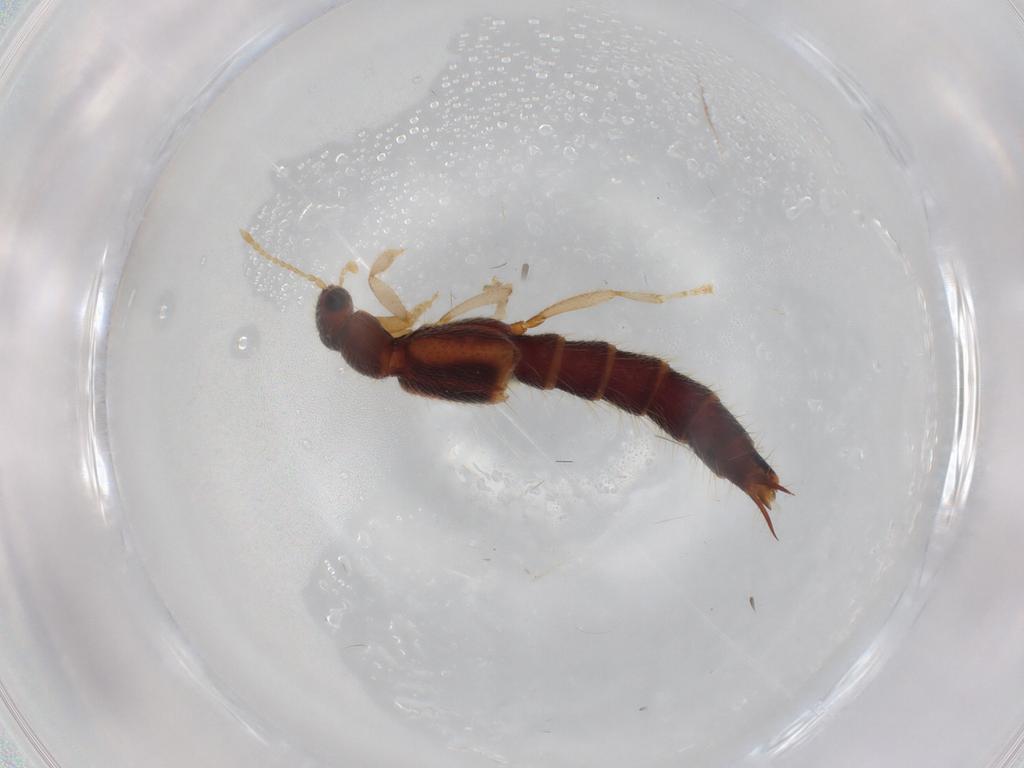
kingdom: Animalia
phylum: Arthropoda
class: Insecta
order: Coleoptera
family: Staphylinidae
